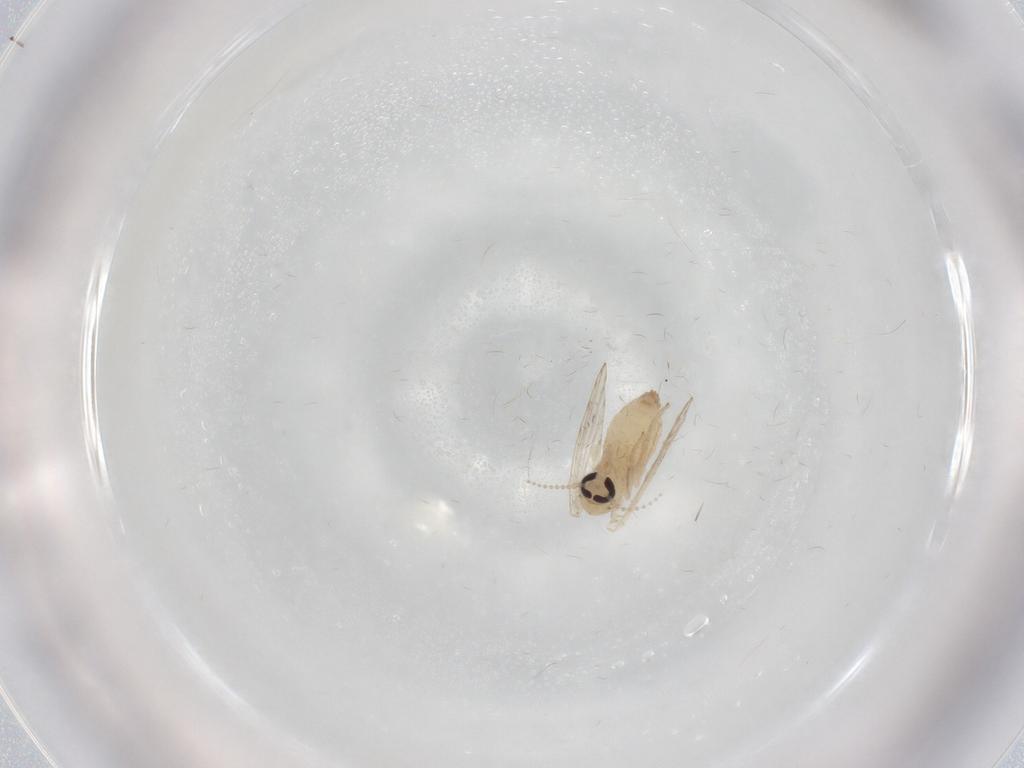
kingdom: Animalia
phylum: Arthropoda
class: Insecta
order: Diptera
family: Psychodidae
